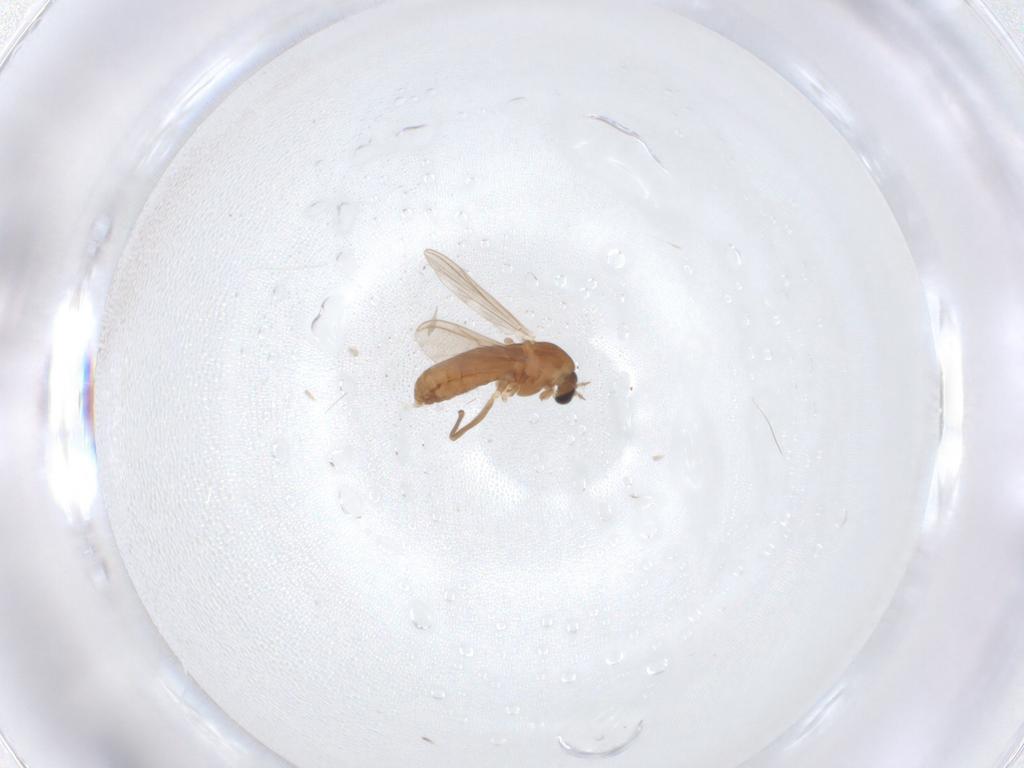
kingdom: Animalia
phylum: Arthropoda
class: Insecta
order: Diptera
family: Chironomidae
